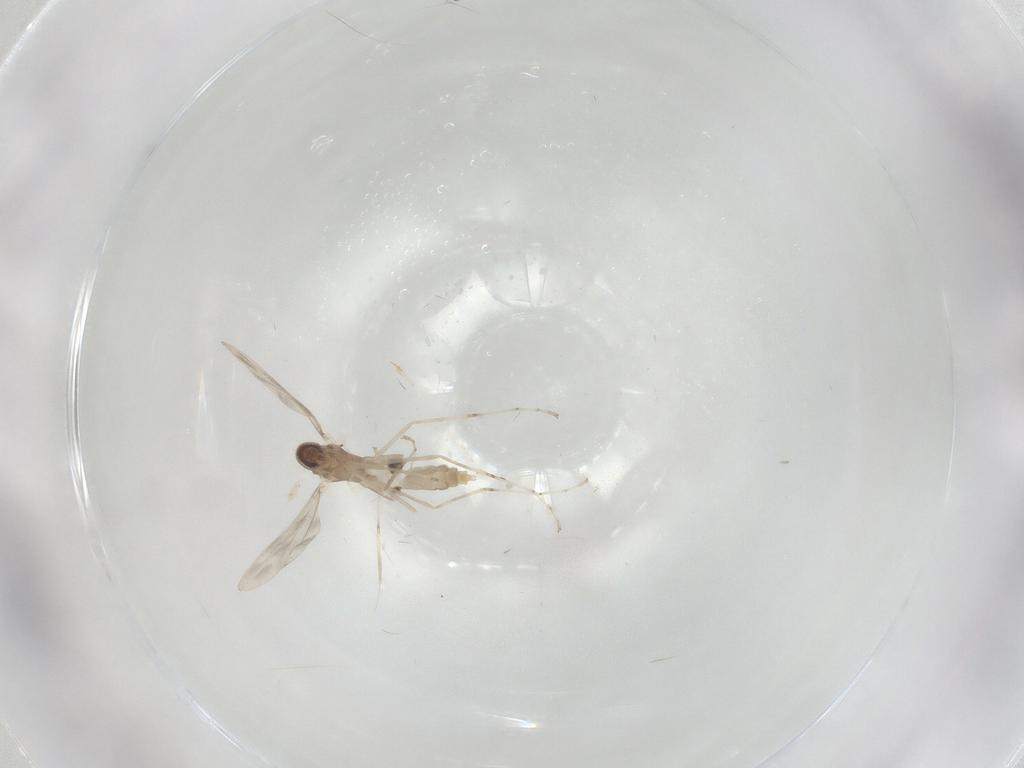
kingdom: Animalia
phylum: Arthropoda
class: Insecta
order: Diptera
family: Cecidomyiidae
